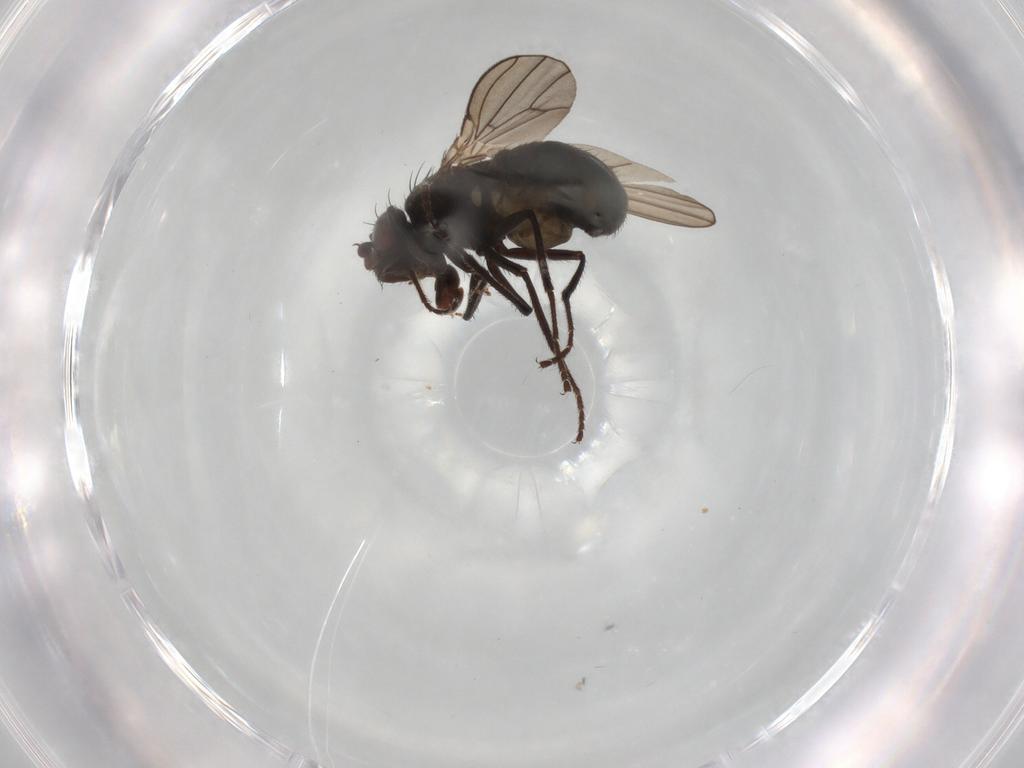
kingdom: Animalia
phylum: Arthropoda
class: Insecta
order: Diptera
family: Ephydridae
